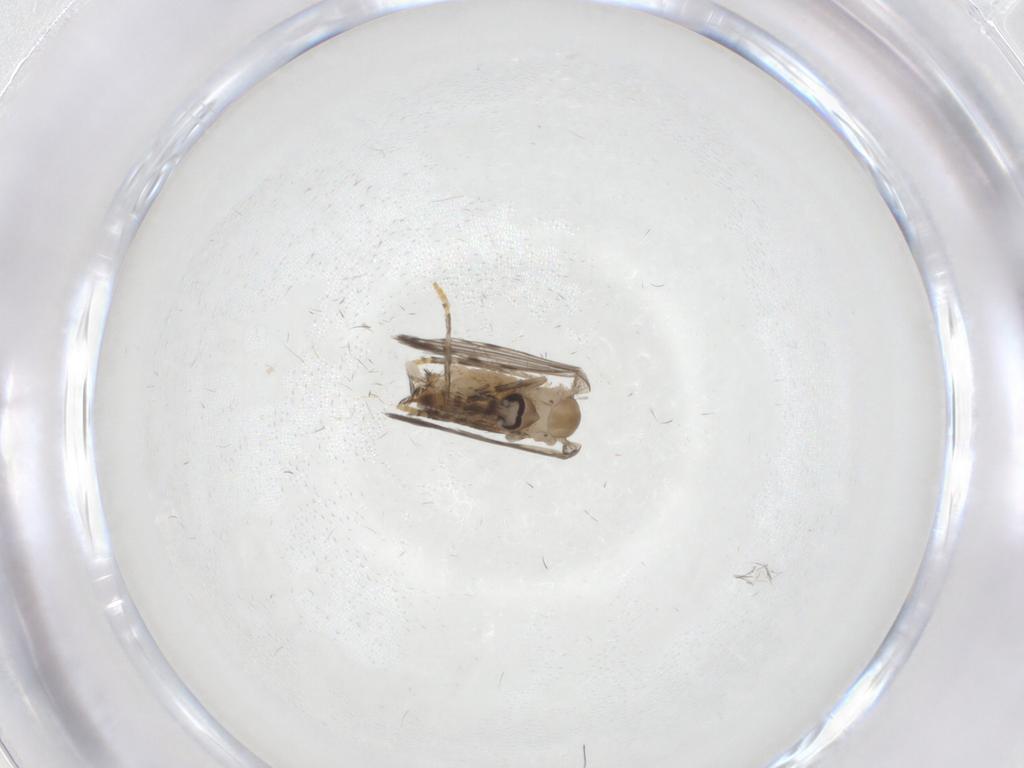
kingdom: Animalia
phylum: Arthropoda
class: Insecta
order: Diptera
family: Psychodidae
